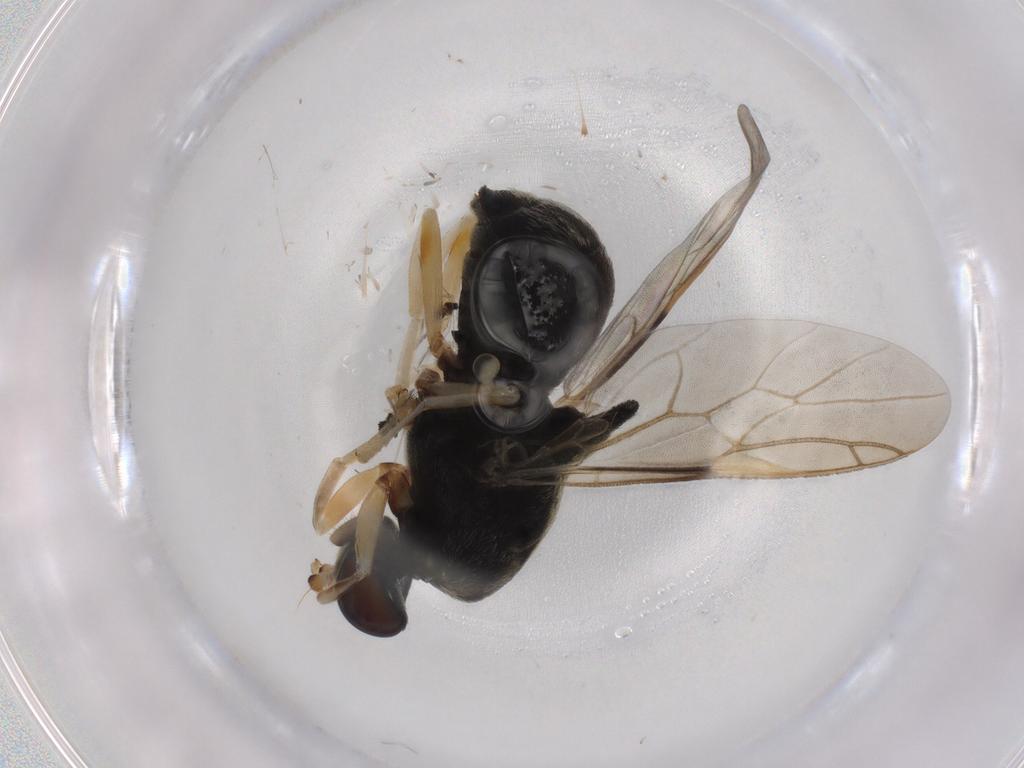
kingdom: Animalia
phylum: Arthropoda
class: Insecta
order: Diptera
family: Stratiomyidae
